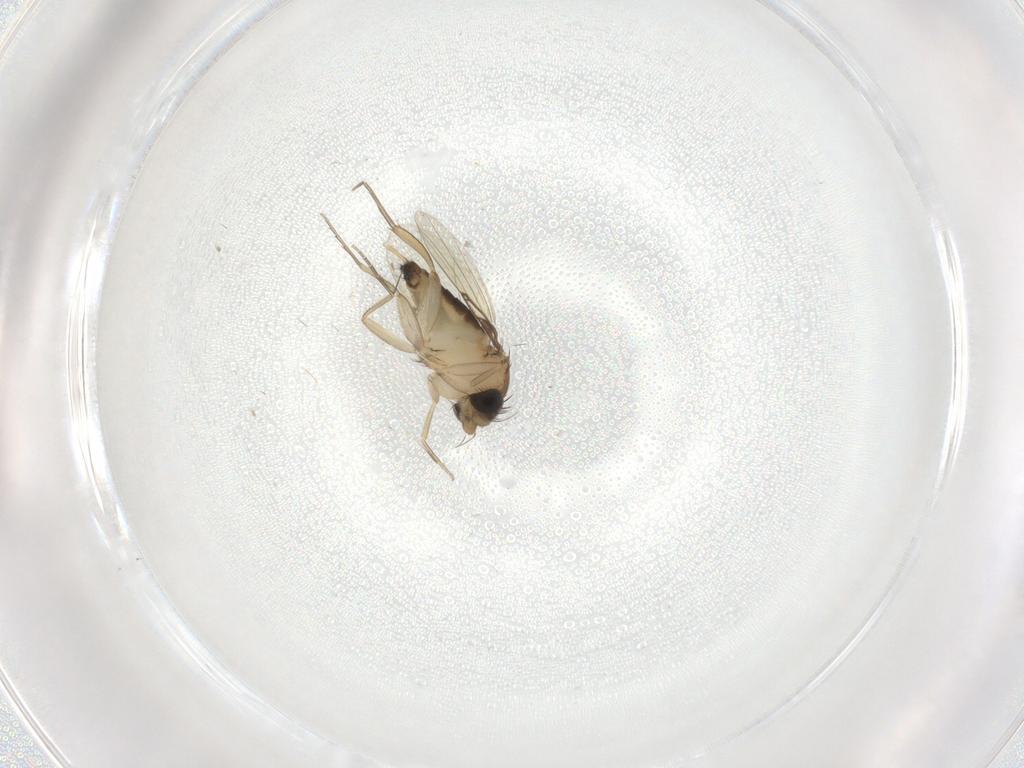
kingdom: Animalia
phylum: Arthropoda
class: Insecta
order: Diptera
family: Phoridae
